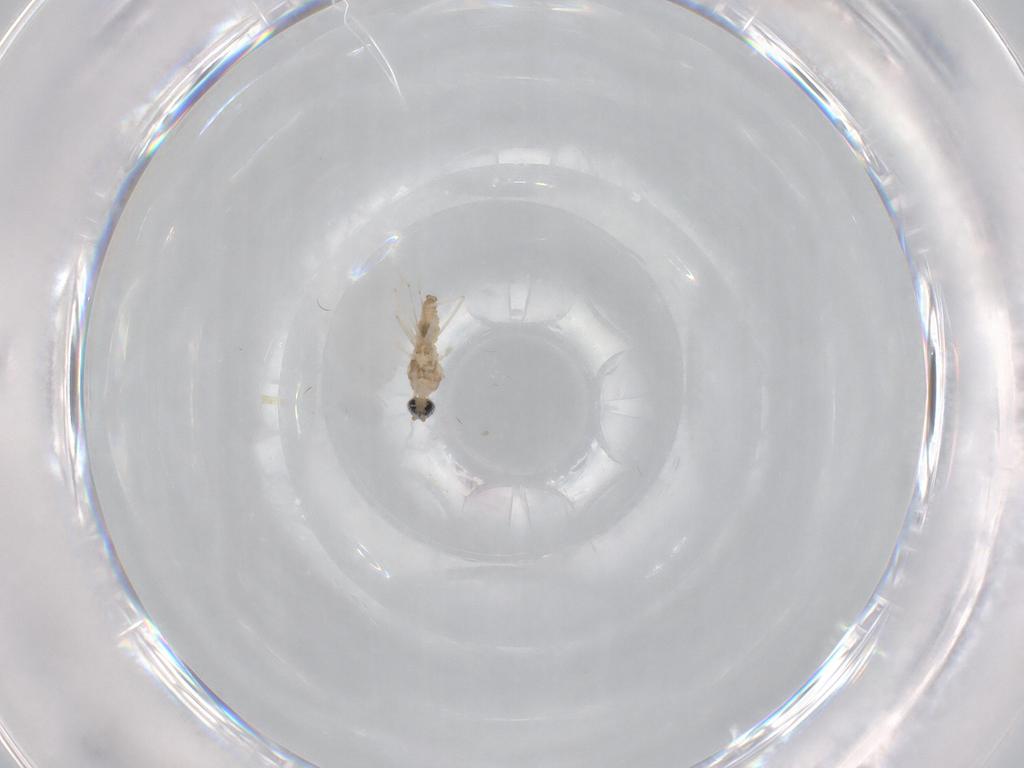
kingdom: Animalia
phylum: Arthropoda
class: Insecta
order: Diptera
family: Cecidomyiidae
